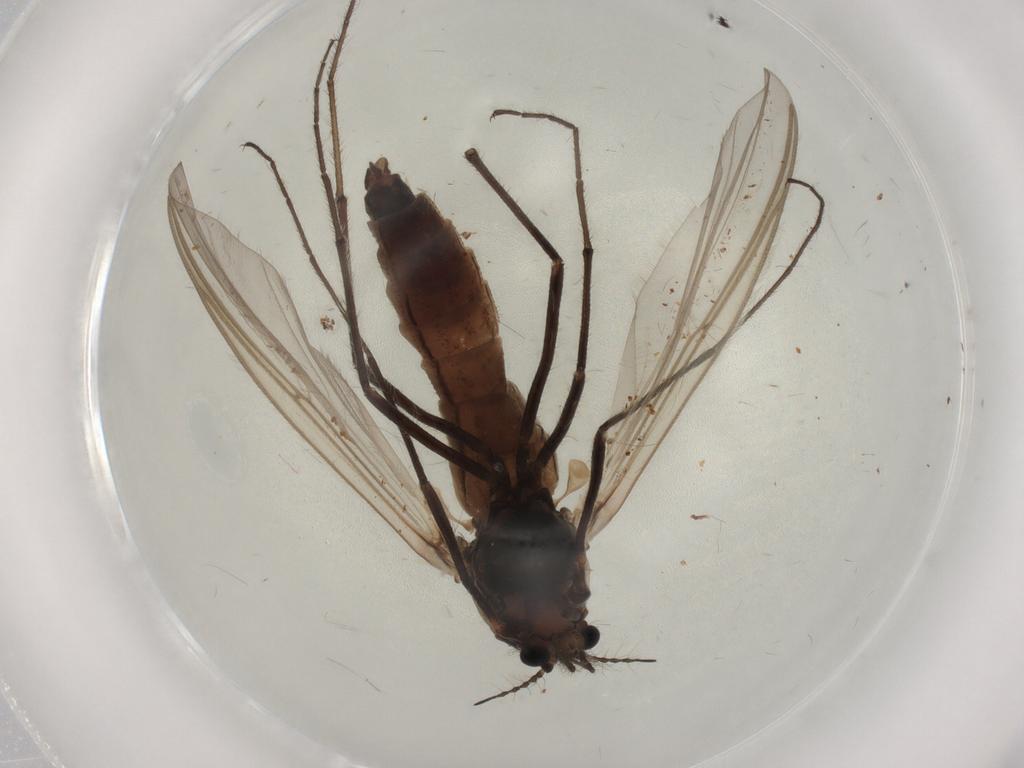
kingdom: Animalia
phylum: Arthropoda
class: Insecta
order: Diptera
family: Chironomidae
